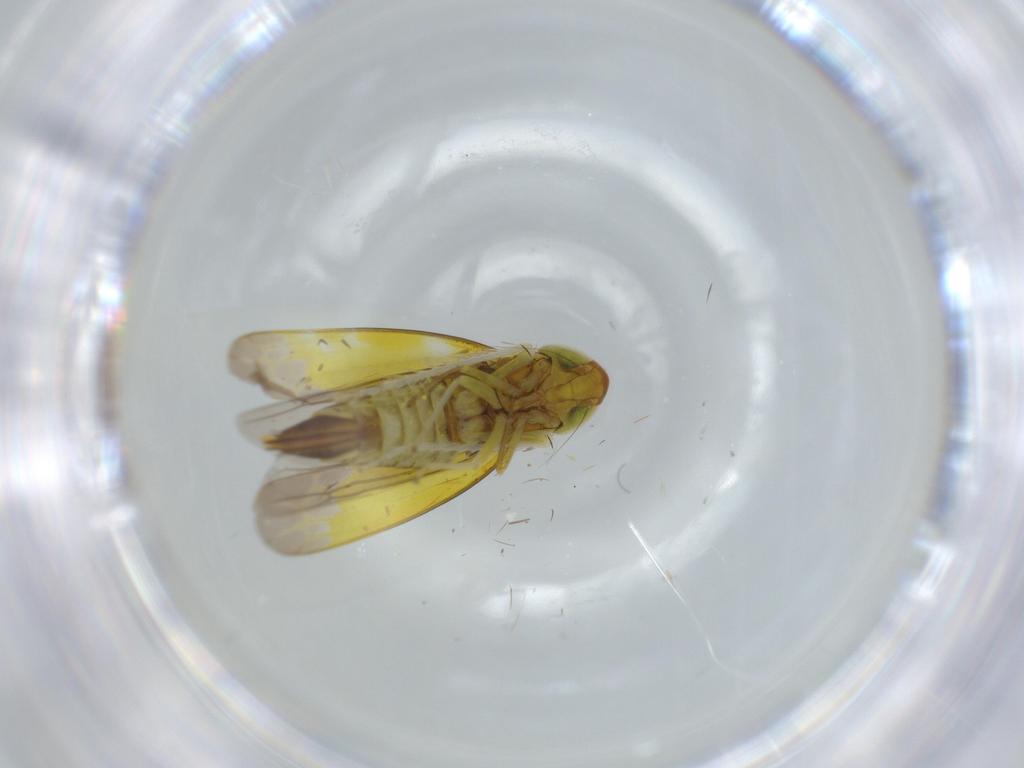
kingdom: Animalia
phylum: Arthropoda
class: Insecta
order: Hemiptera
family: Cicadellidae
